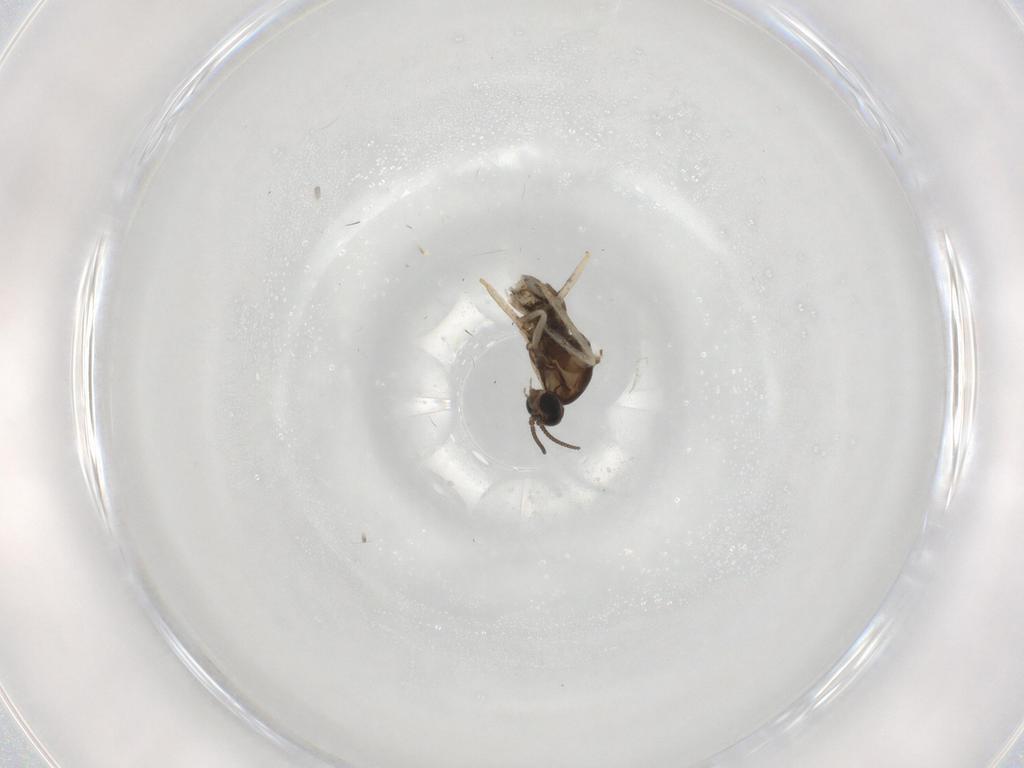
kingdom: Animalia
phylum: Arthropoda
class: Insecta
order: Diptera
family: Cecidomyiidae
